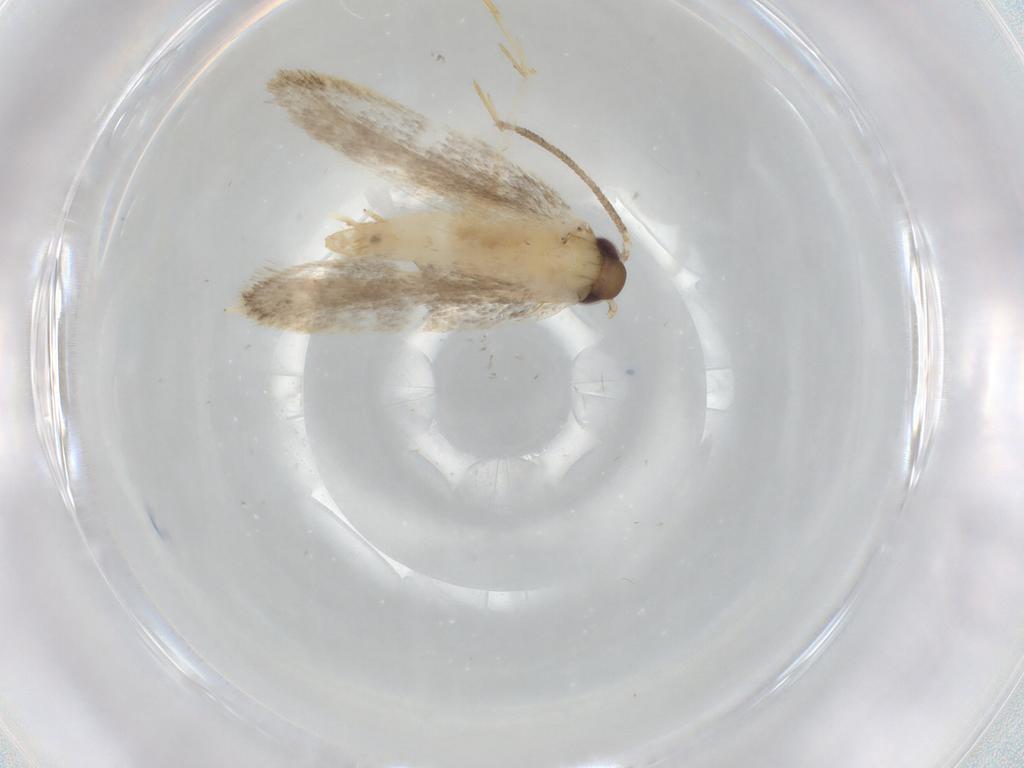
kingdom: Animalia
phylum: Arthropoda
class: Insecta
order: Lepidoptera
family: Autostichidae
